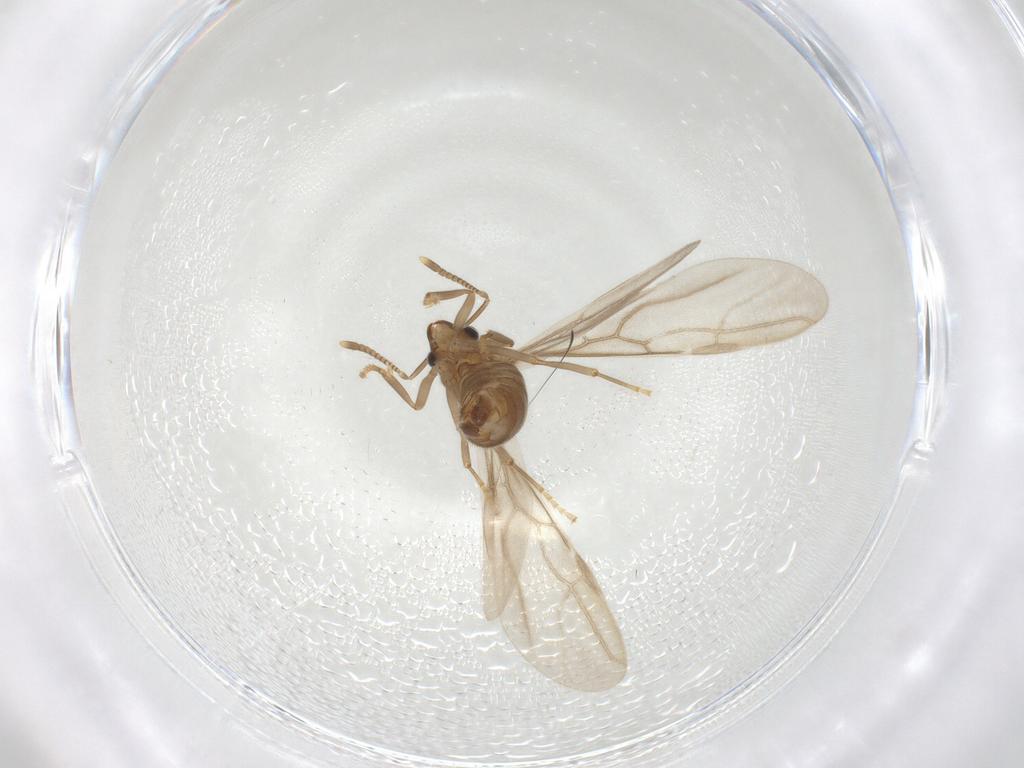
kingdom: Animalia
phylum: Arthropoda
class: Insecta
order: Hymenoptera
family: Formicidae
